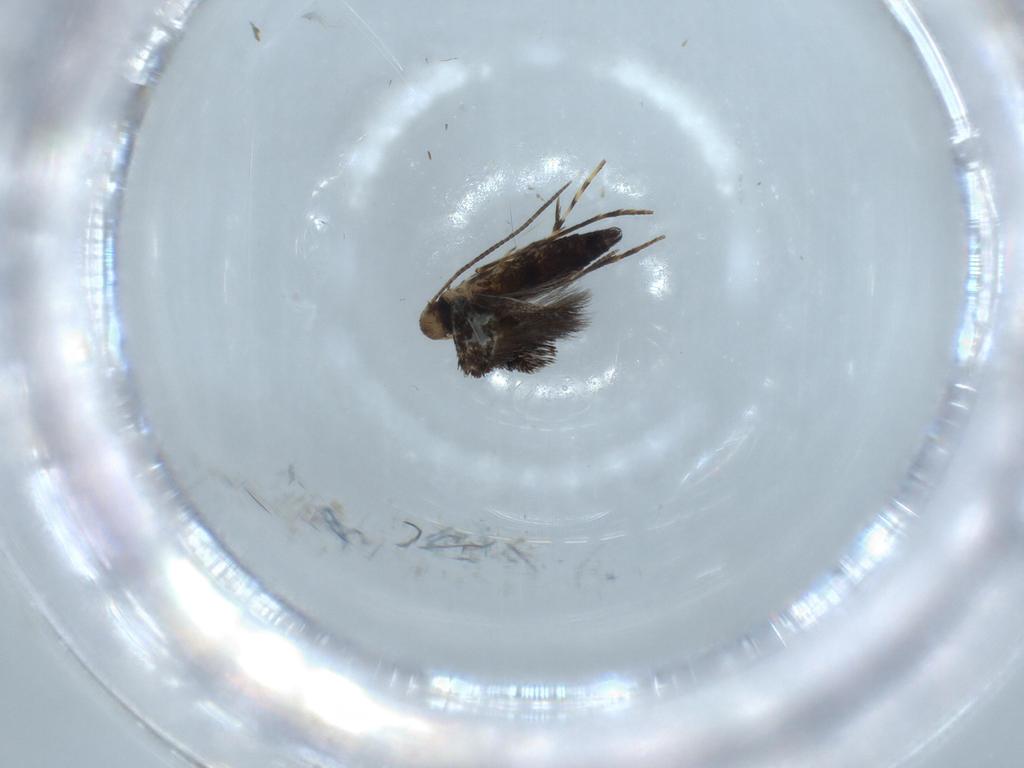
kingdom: Animalia
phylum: Arthropoda
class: Insecta
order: Lepidoptera
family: Gracillariidae
